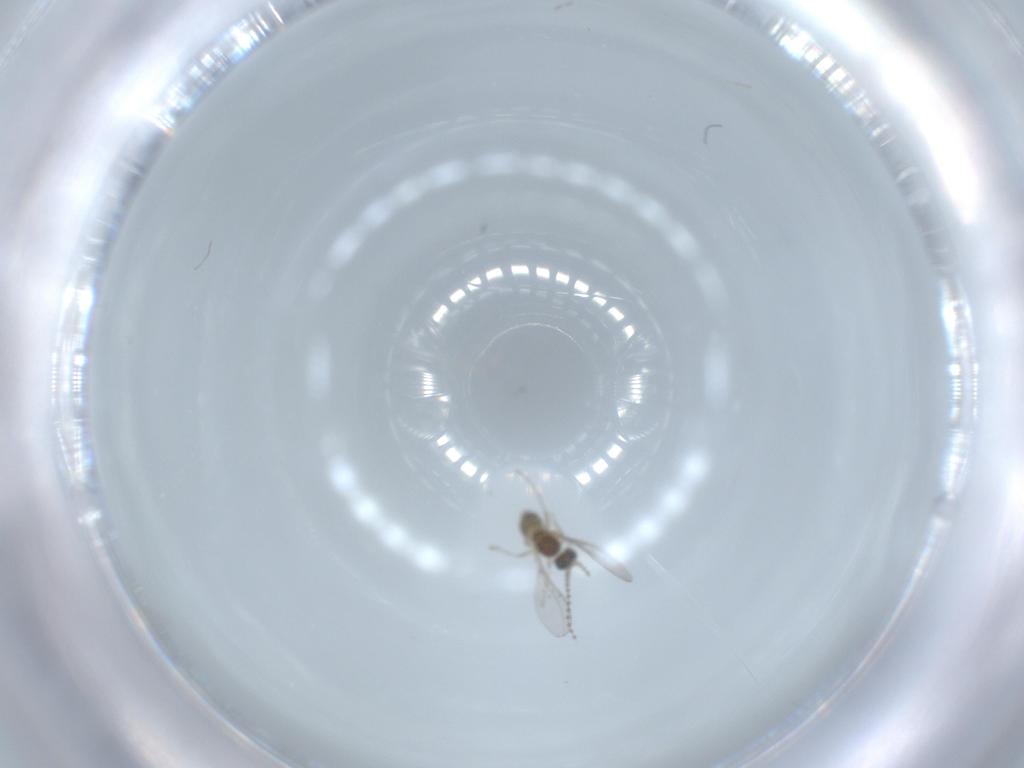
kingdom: Animalia
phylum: Arthropoda
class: Insecta
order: Diptera
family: Cecidomyiidae
